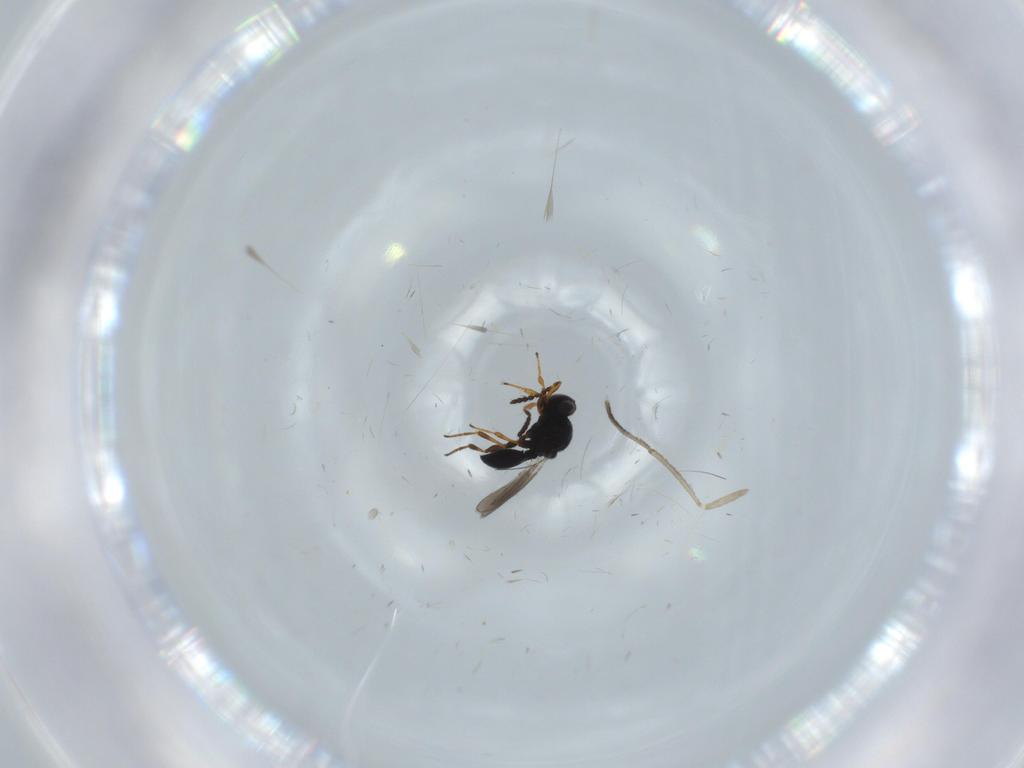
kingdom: Animalia
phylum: Arthropoda
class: Insecta
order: Hymenoptera
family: Platygastridae
